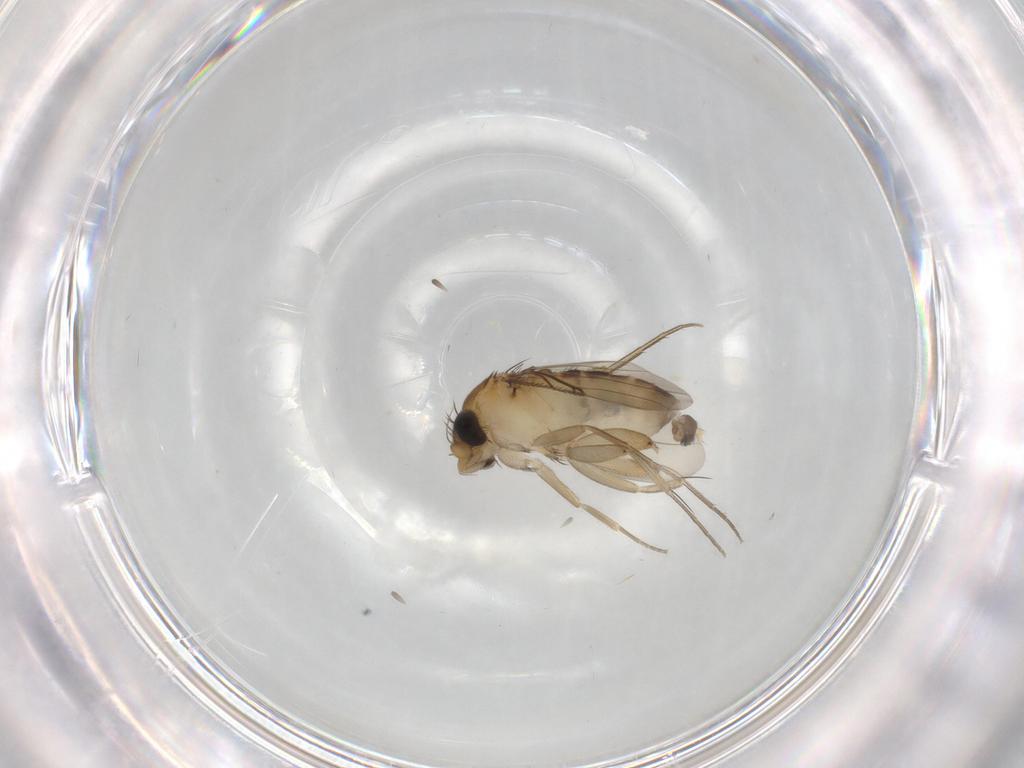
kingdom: Animalia
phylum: Arthropoda
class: Insecta
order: Diptera
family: Phoridae
